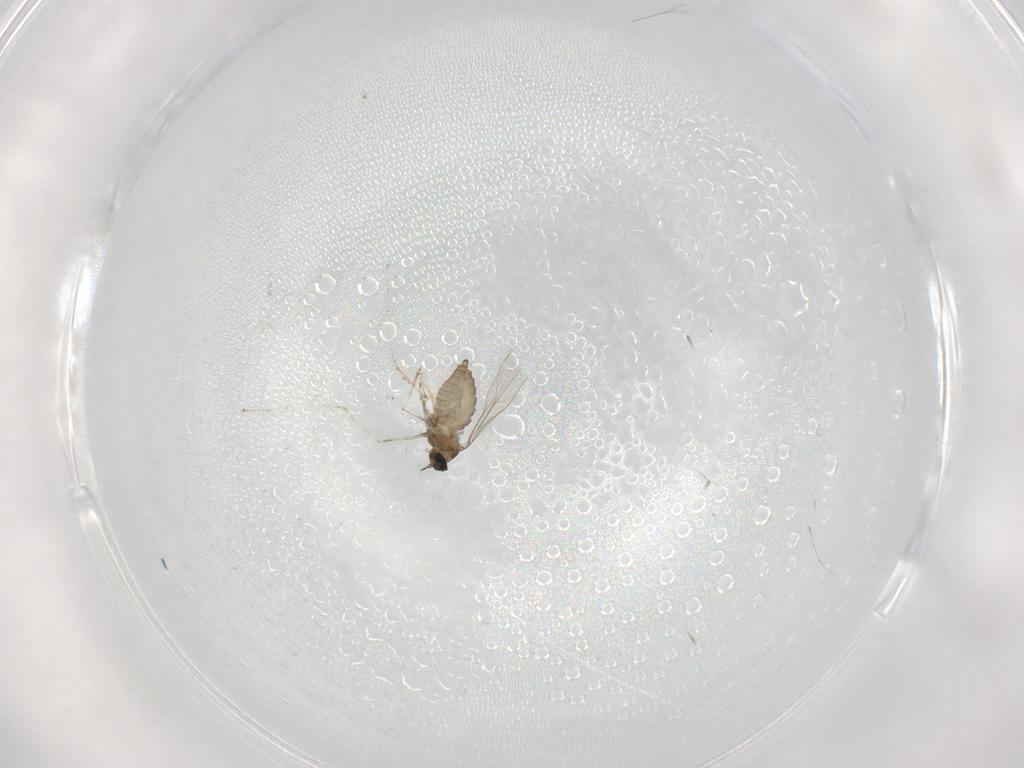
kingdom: Animalia
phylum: Arthropoda
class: Insecta
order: Diptera
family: Cecidomyiidae
